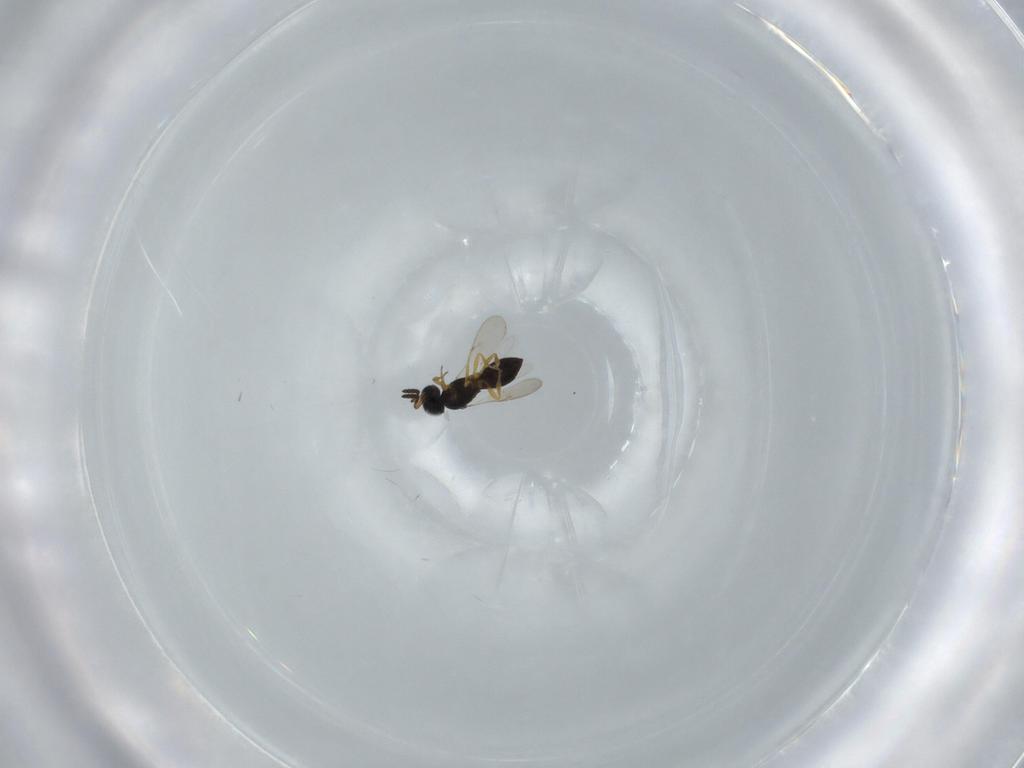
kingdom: Animalia
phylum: Arthropoda
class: Insecta
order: Hymenoptera
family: Scelionidae
